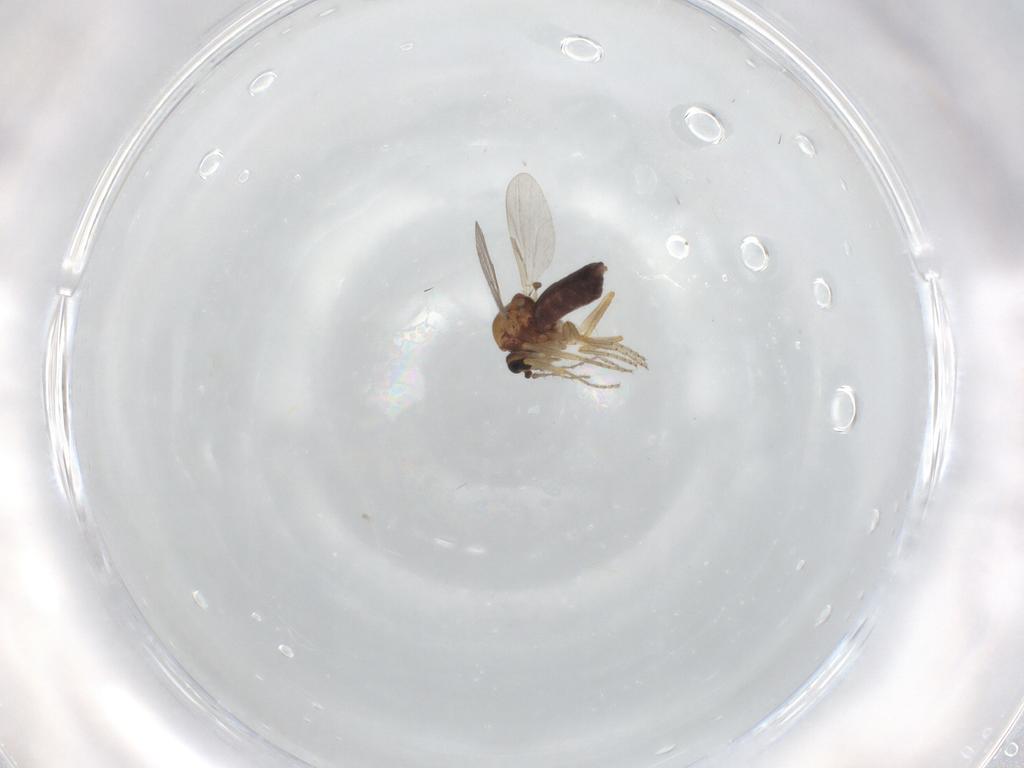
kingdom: Animalia
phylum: Arthropoda
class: Insecta
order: Diptera
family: Ceratopogonidae
